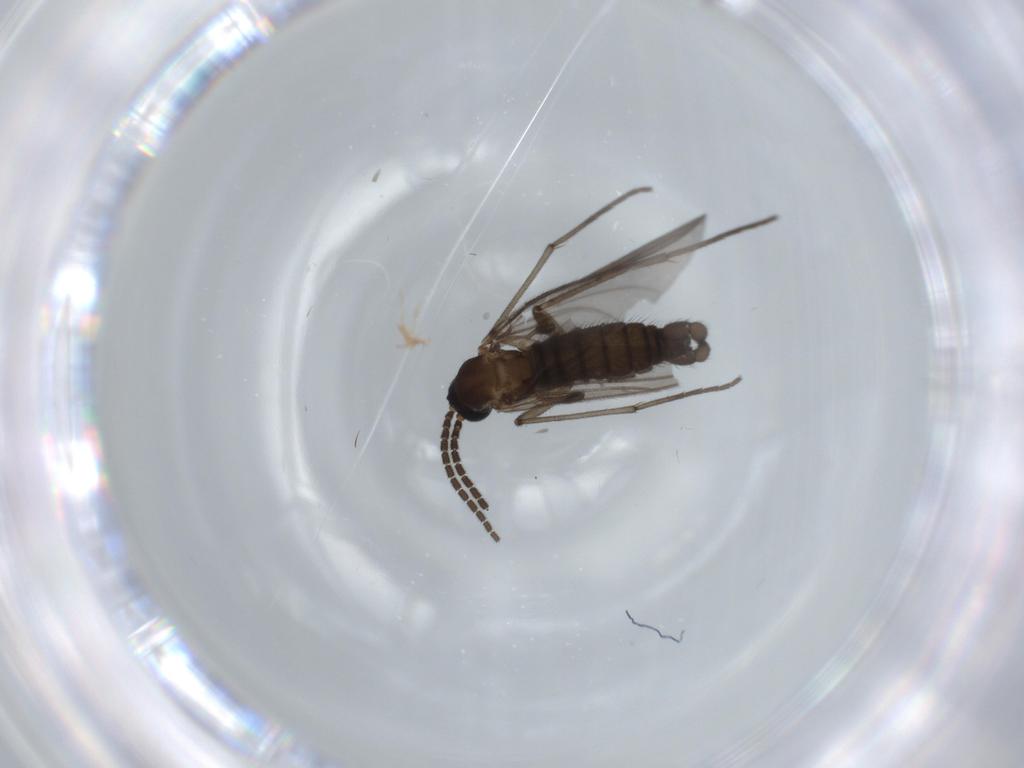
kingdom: Animalia
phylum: Arthropoda
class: Insecta
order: Diptera
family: Sciaridae
